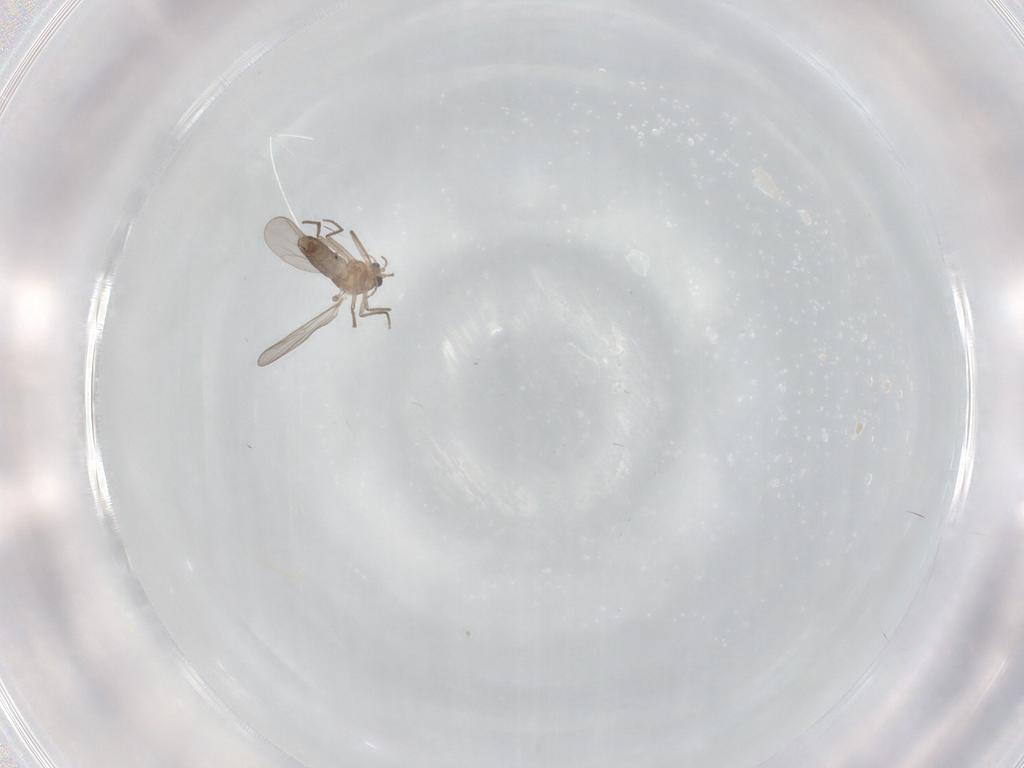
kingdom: Animalia
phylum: Arthropoda
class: Insecta
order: Diptera
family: Chironomidae
